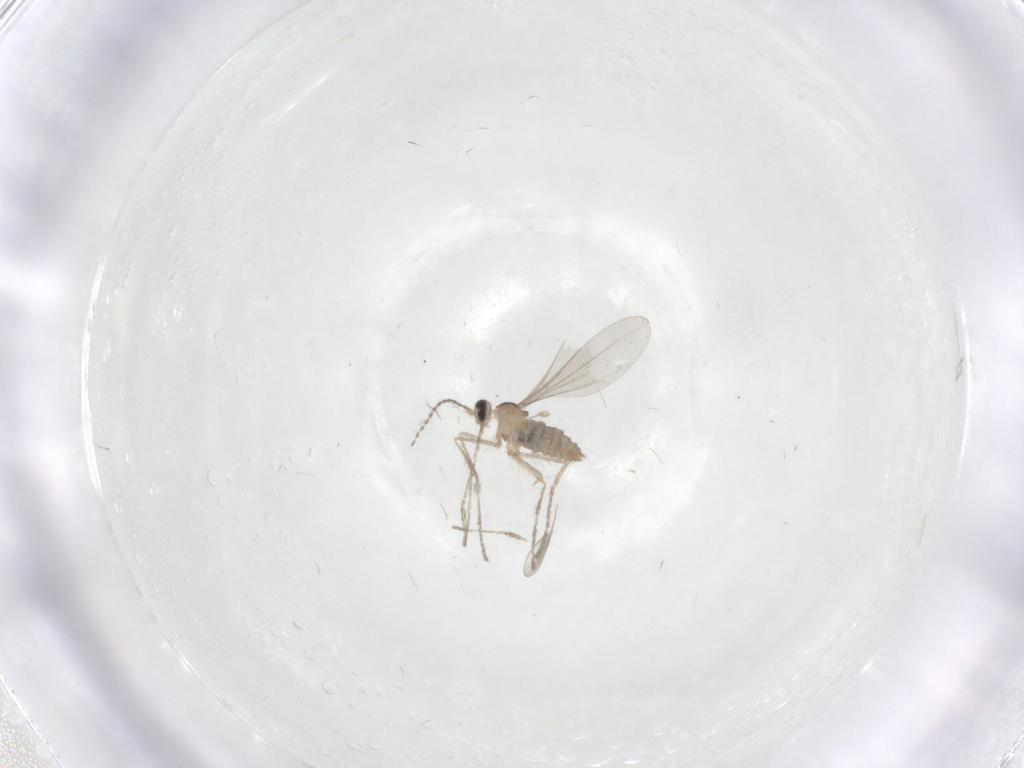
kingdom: Animalia
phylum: Arthropoda
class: Insecta
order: Diptera
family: Cecidomyiidae
